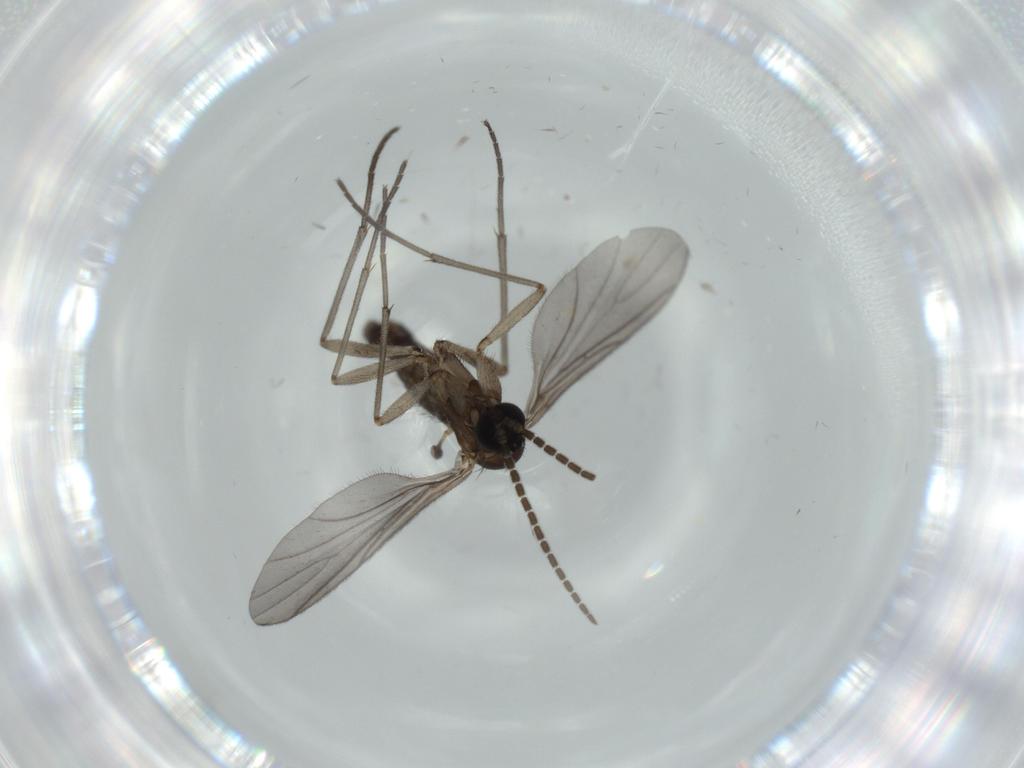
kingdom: Animalia
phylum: Arthropoda
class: Insecta
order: Diptera
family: Sciaridae
